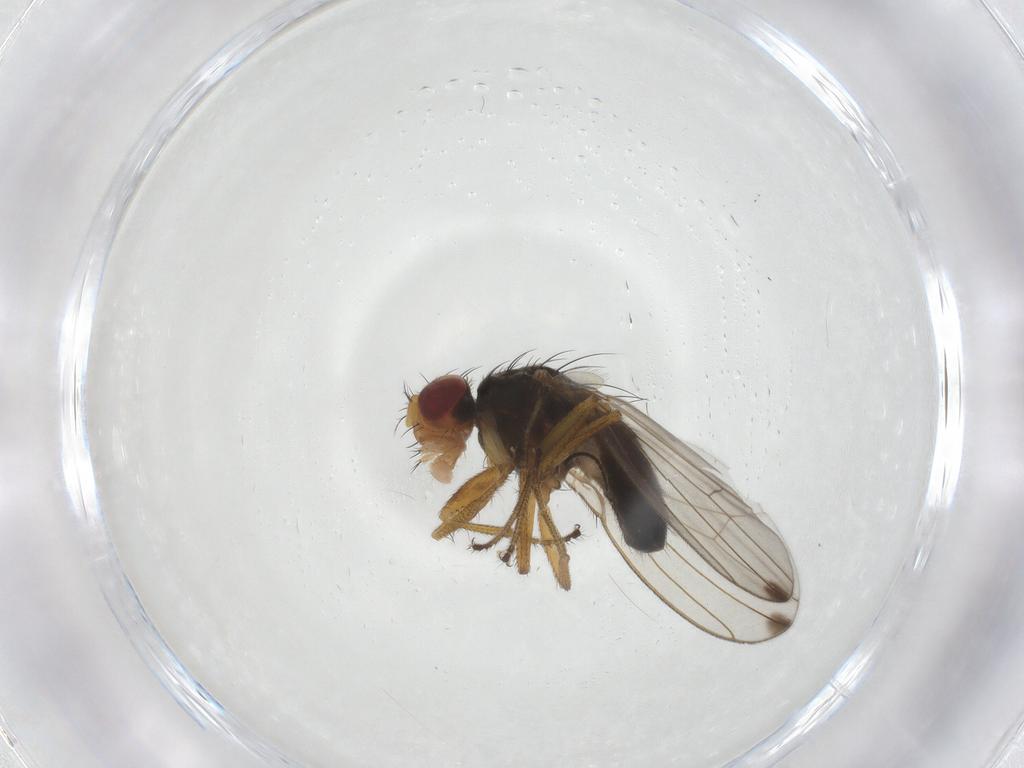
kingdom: Animalia
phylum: Arthropoda
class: Insecta
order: Diptera
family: Drosophilidae
